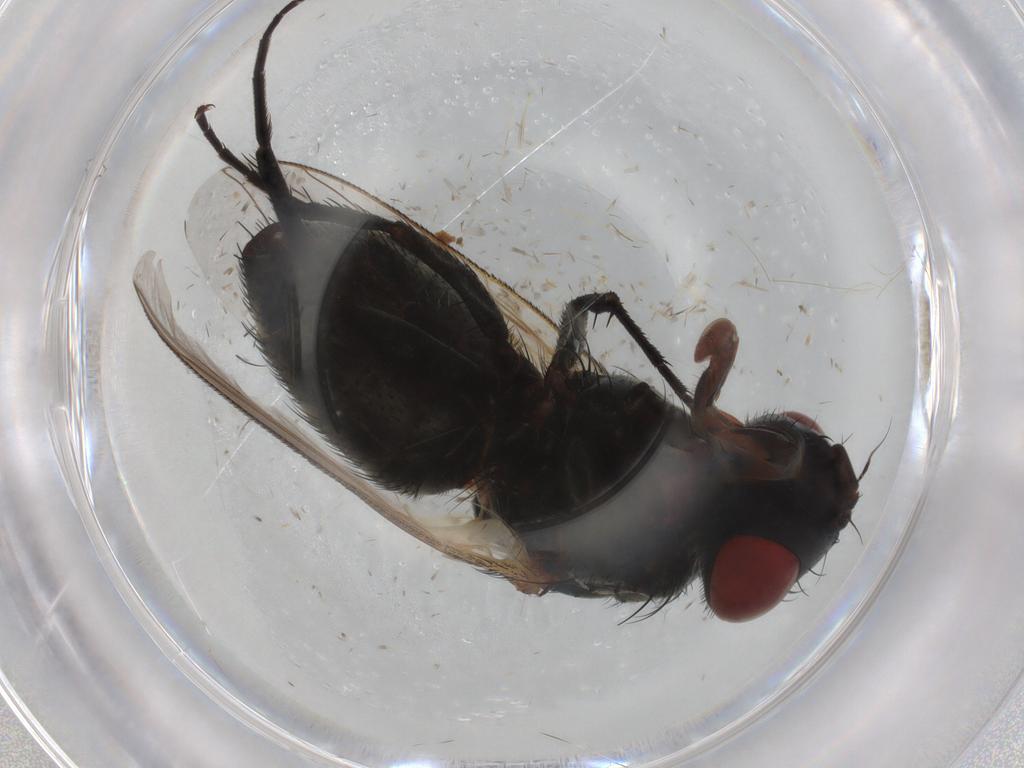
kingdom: Animalia
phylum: Arthropoda
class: Insecta
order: Diptera
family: Sarcophagidae
